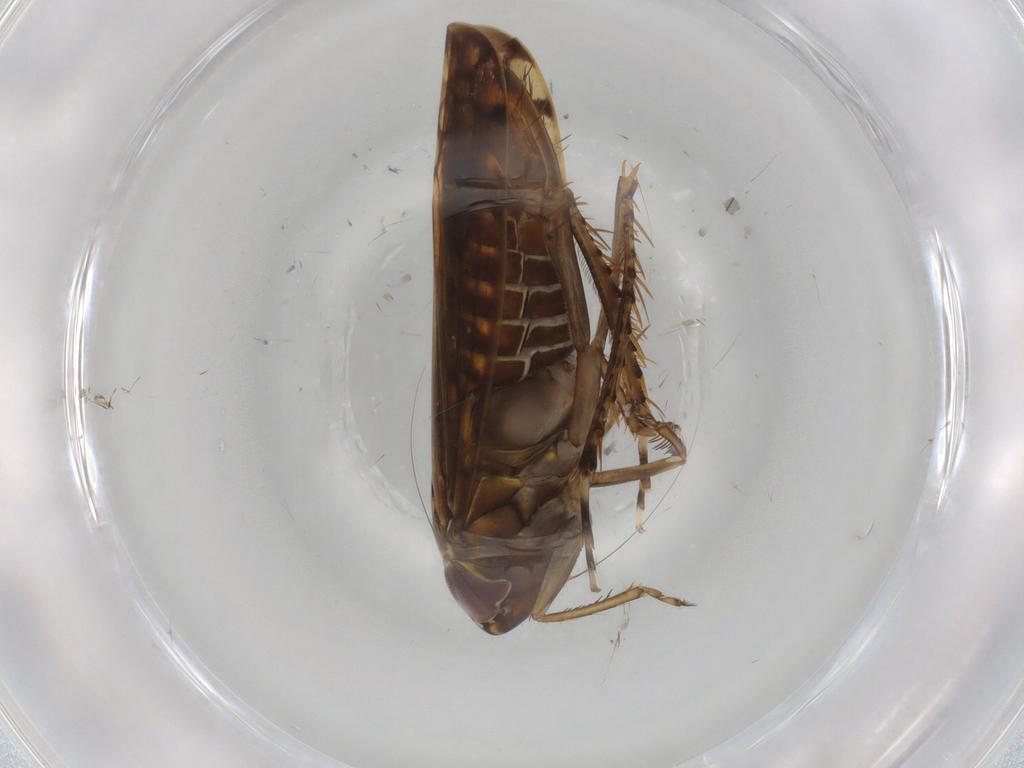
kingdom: Animalia
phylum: Arthropoda
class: Insecta
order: Hemiptera
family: Cicadellidae
